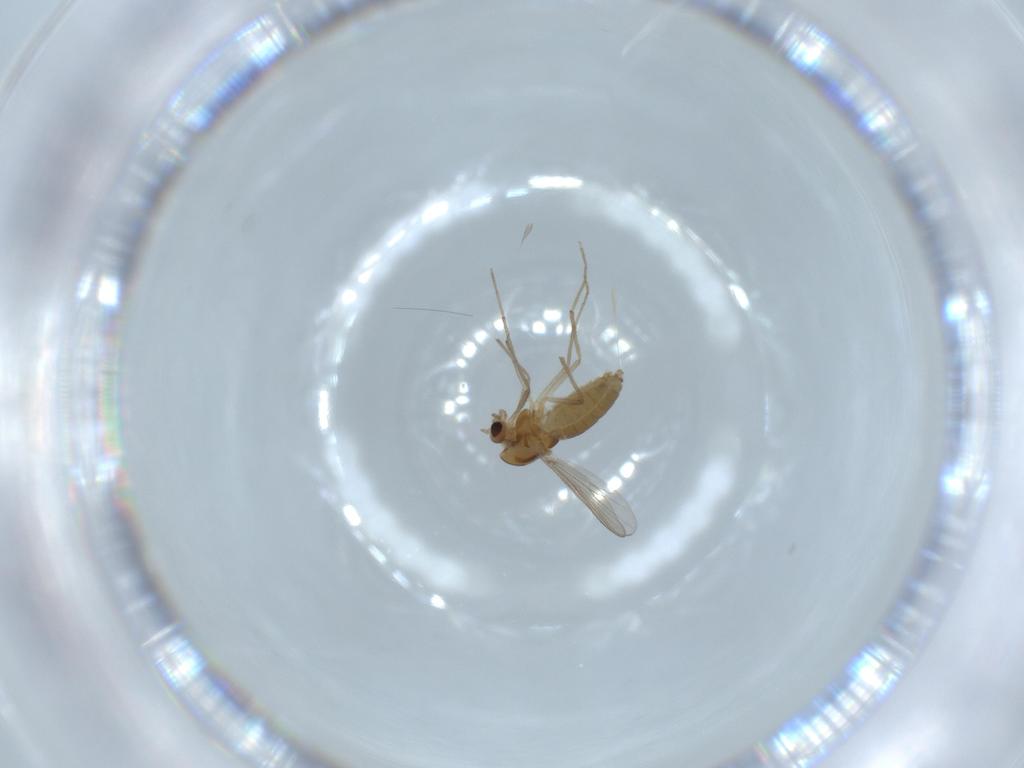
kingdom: Animalia
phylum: Arthropoda
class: Insecta
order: Diptera
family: Chironomidae
